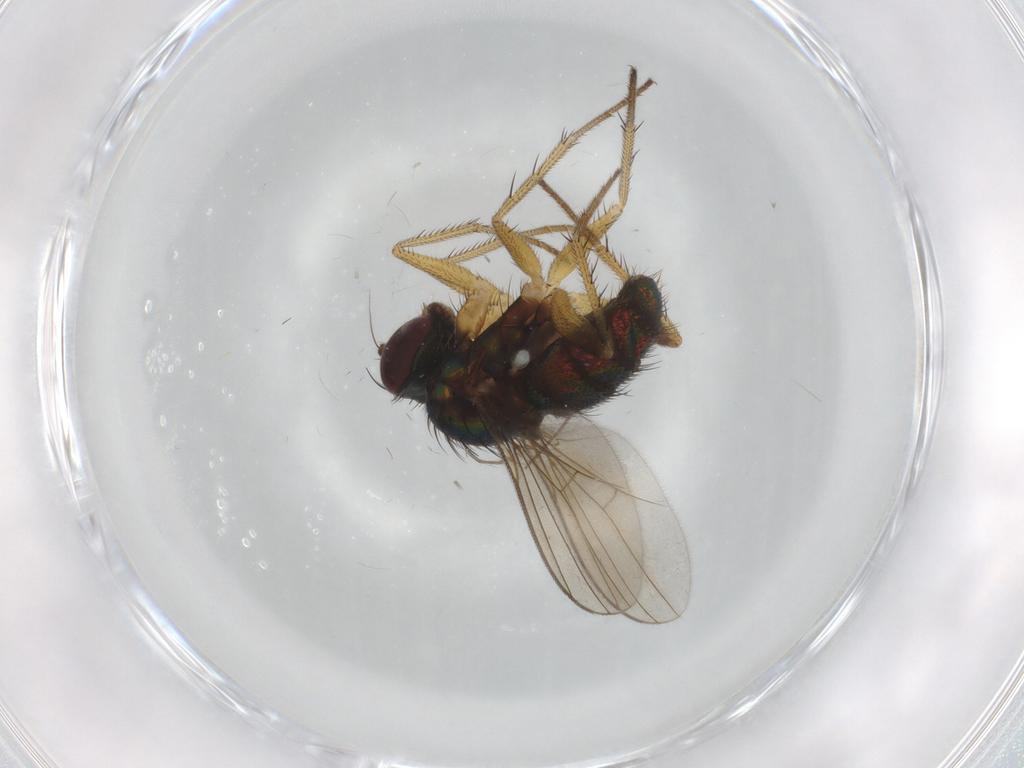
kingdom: Animalia
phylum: Arthropoda
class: Insecta
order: Diptera
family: Dolichopodidae
